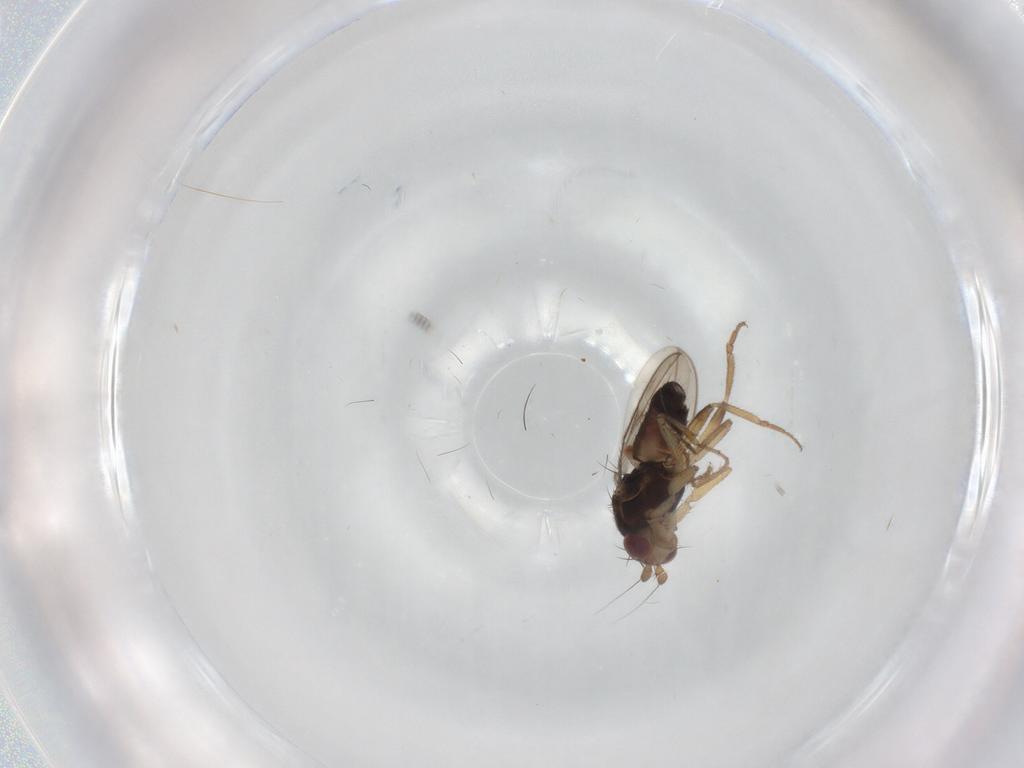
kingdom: Animalia
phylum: Arthropoda
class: Insecta
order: Diptera
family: Sphaeroceridae
